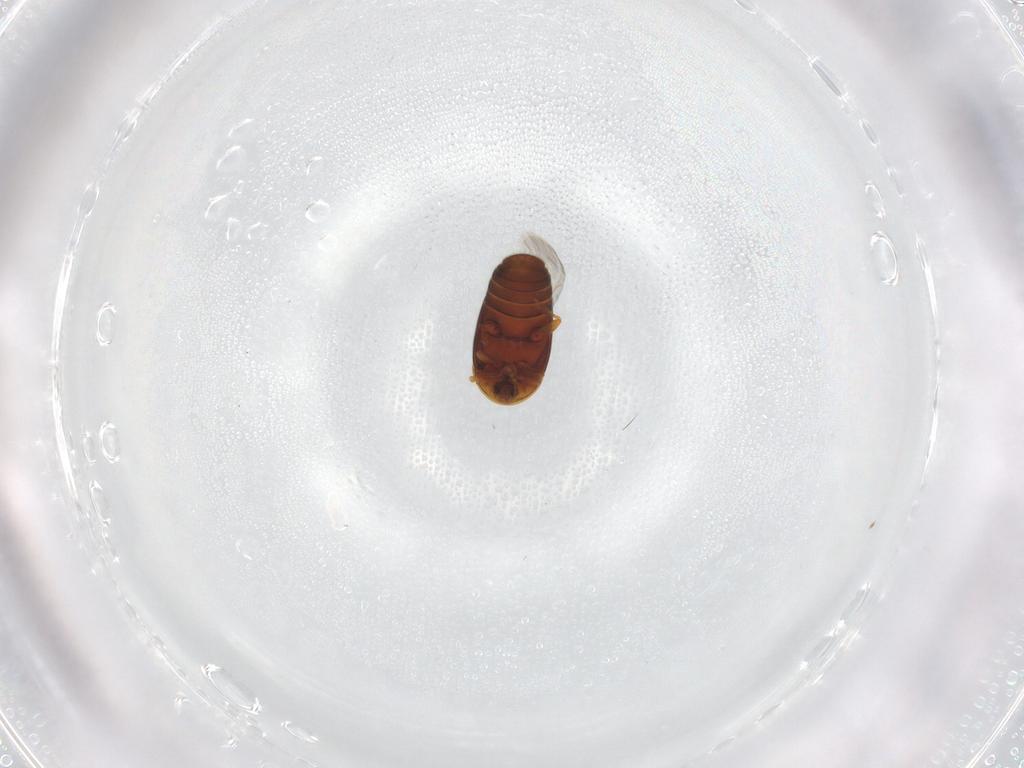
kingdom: Animalia
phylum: Arthropoda
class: Insecta
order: Coleoptera
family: Corylophidae
